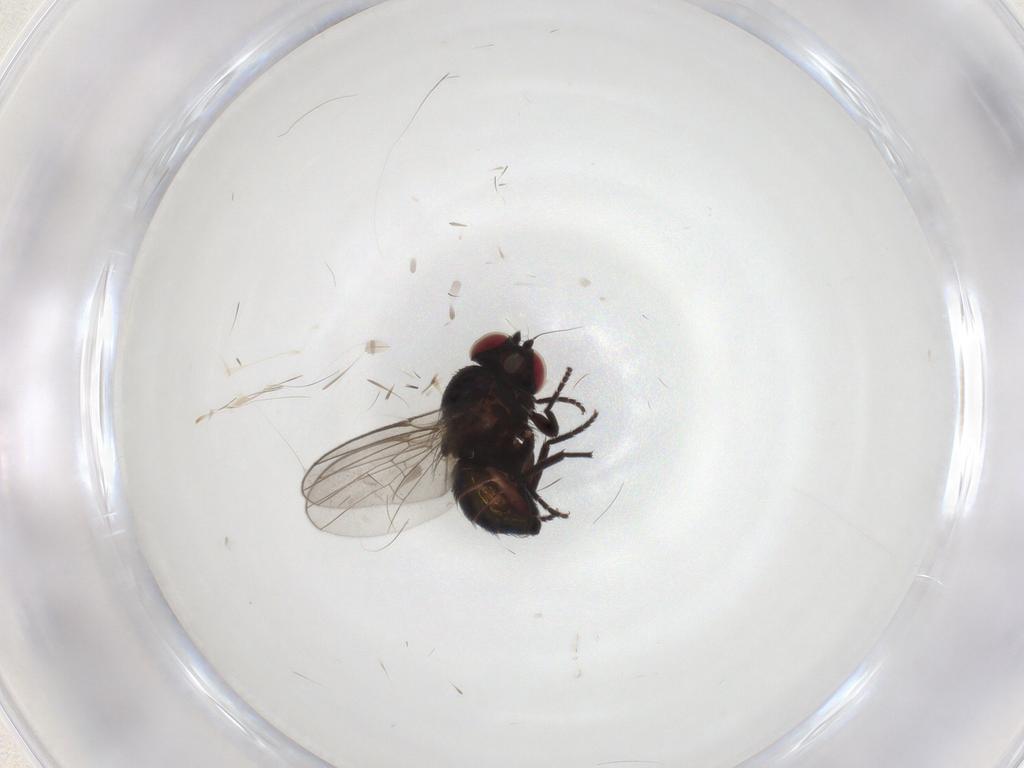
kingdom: Animalia
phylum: Arthropoda
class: Insecta
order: Diptera
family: Agromyzidae
